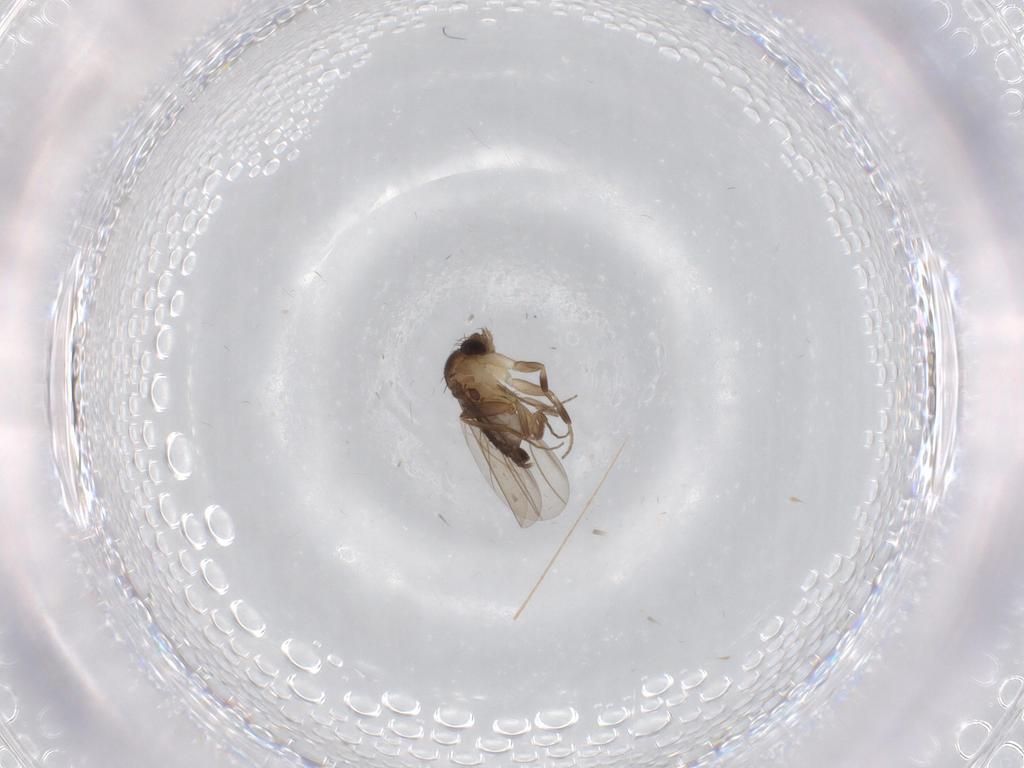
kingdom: Animalia
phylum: Arthropoda
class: Insecta
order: Diptera
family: Phoridae
